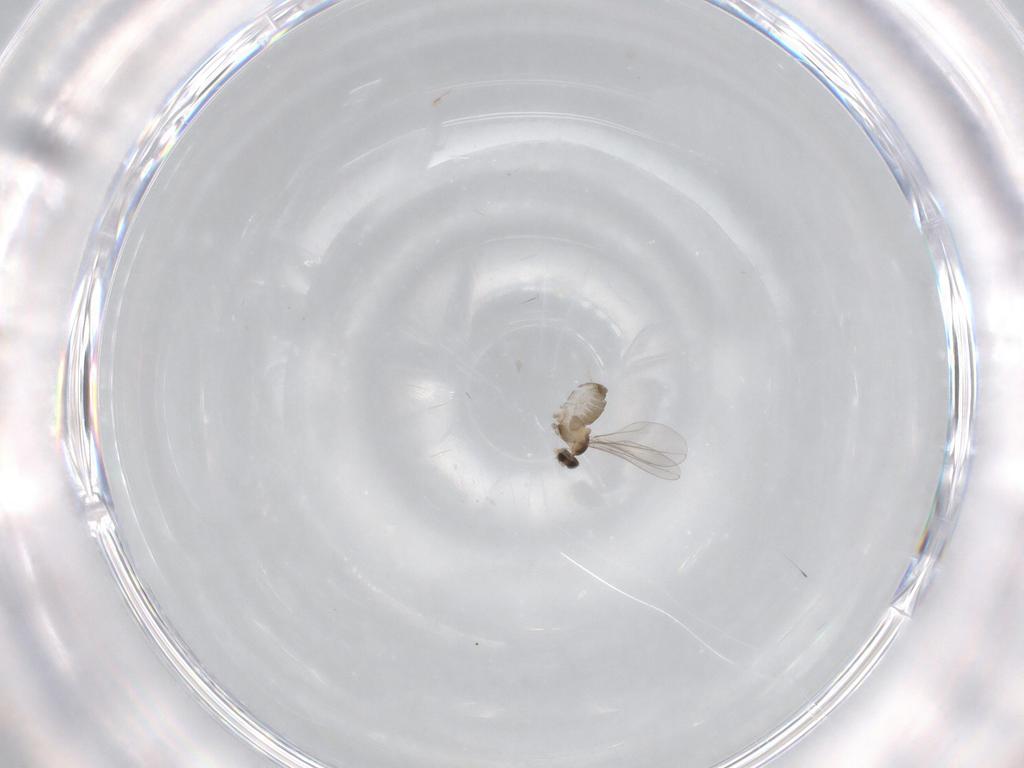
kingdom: Animalia
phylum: Arthropoda
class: Insecta
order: Diptera
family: Cecidomyiidae
